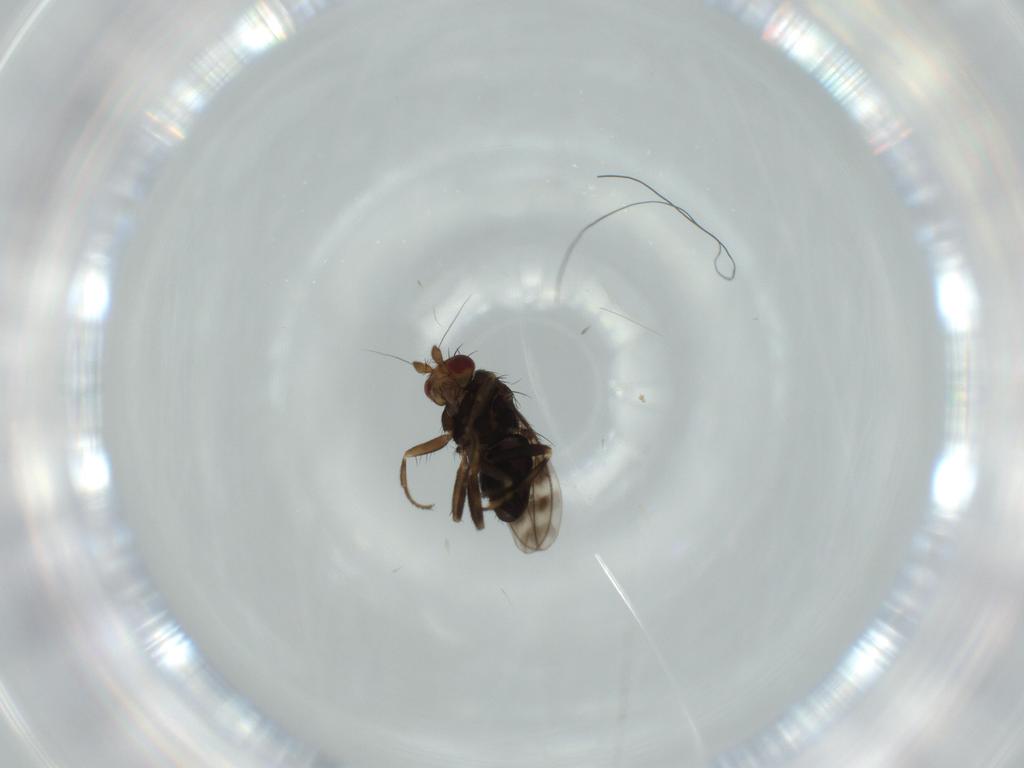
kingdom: Animalia
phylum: Arthropoda
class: Insecta
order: Diptera
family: Sphaeroceridae
